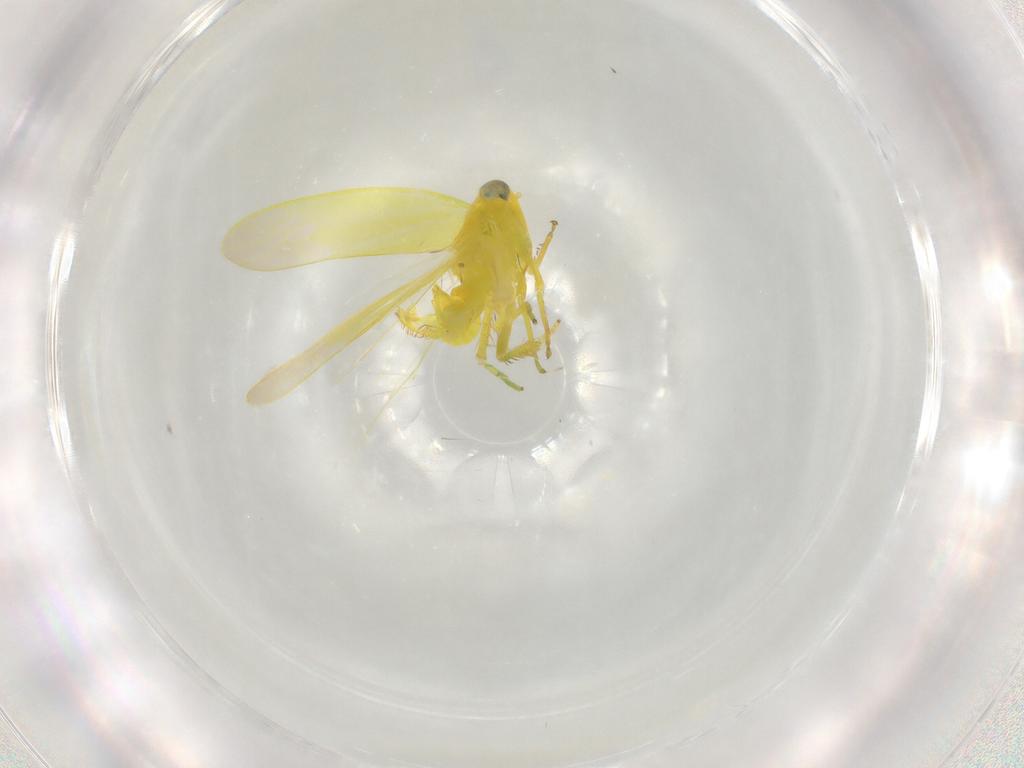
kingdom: Animalia
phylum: Arthropoda
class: Insecta
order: Hemiptera
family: Cicadellidae
